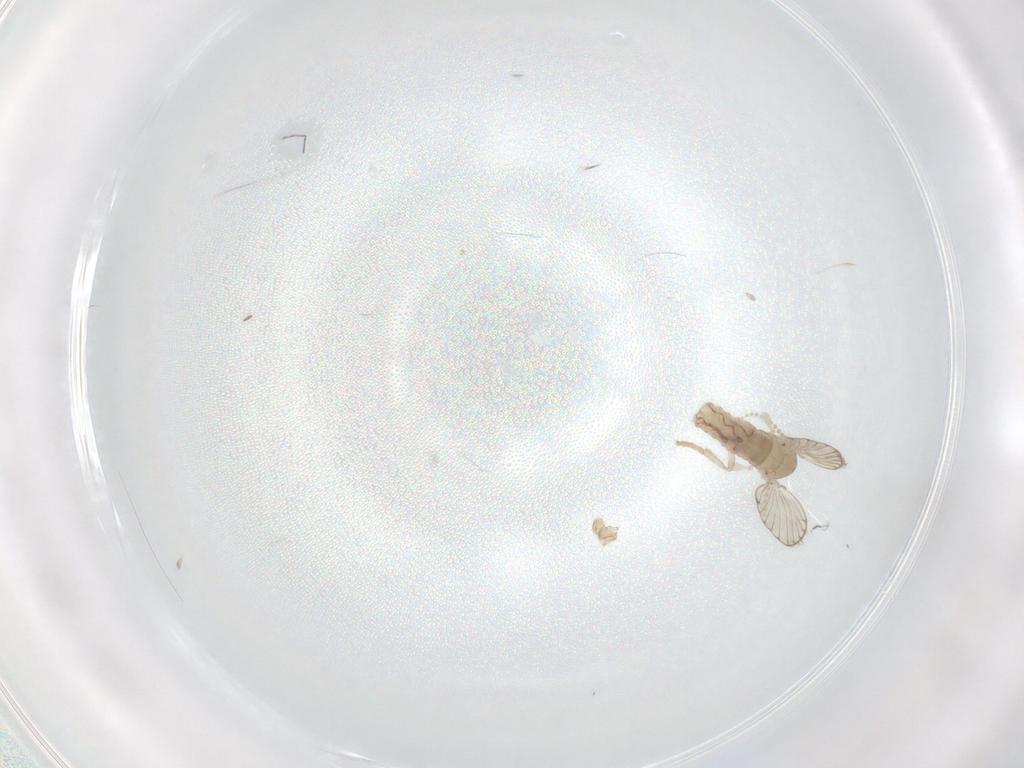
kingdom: Animalia
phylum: Arthropoda
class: Insecta
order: Diptera
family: Psychodidae
